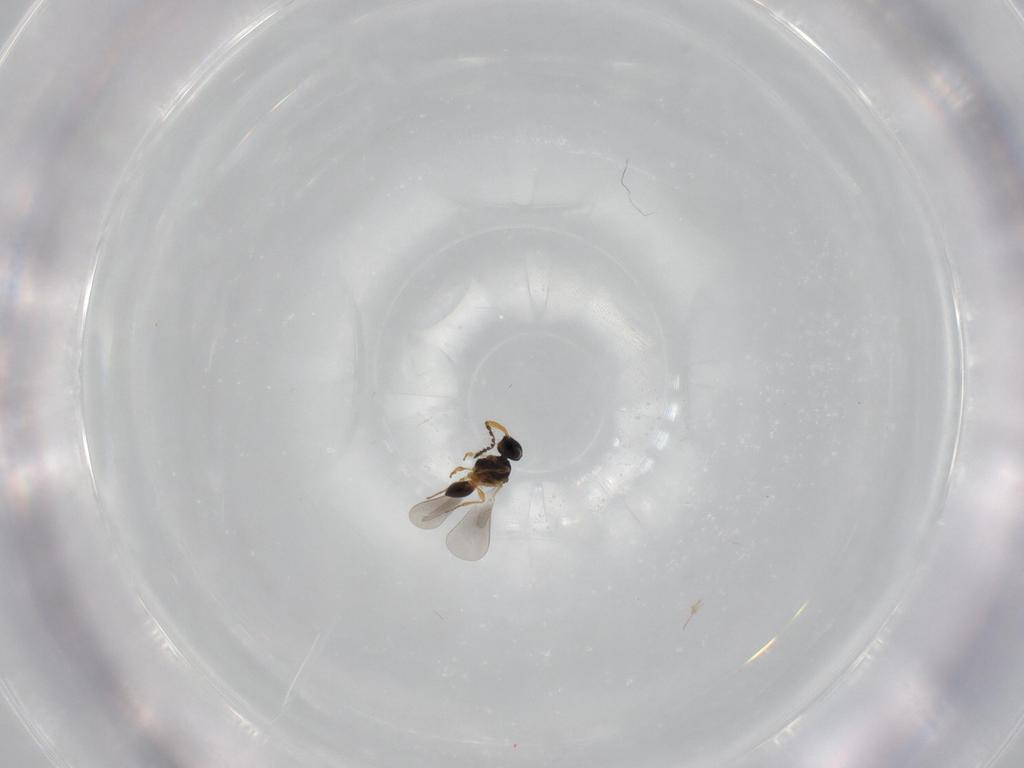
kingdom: Animalia
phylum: Arthropoda
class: Insecta
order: Hymenoptera
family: Platygastridae
